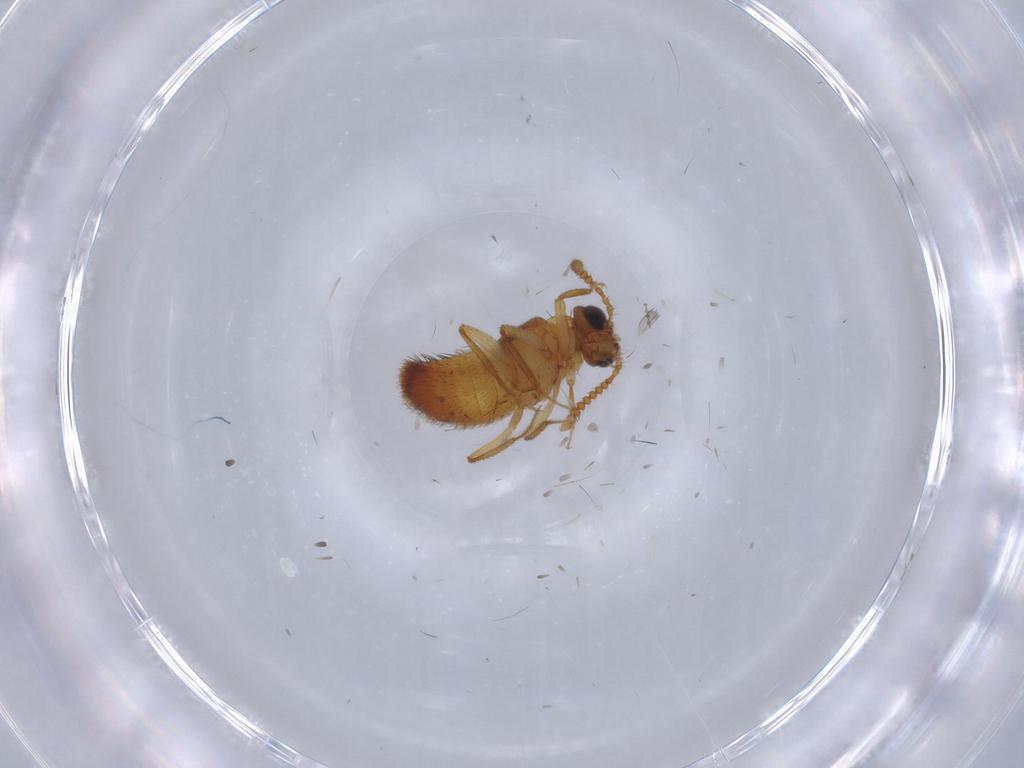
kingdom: Animalia
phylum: Arthropoda
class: Insecta
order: Coleoptera
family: Staphylinidae
